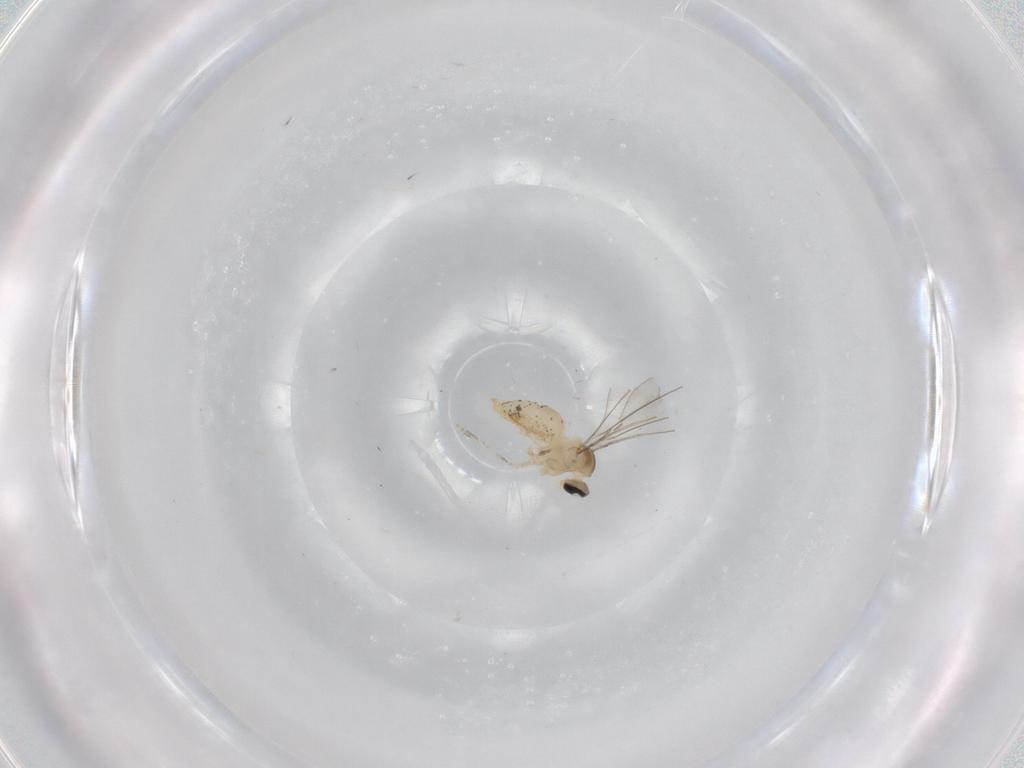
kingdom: Animalia
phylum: Arthropoda
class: Insecta
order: Diptera
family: Cecidomyiidae
